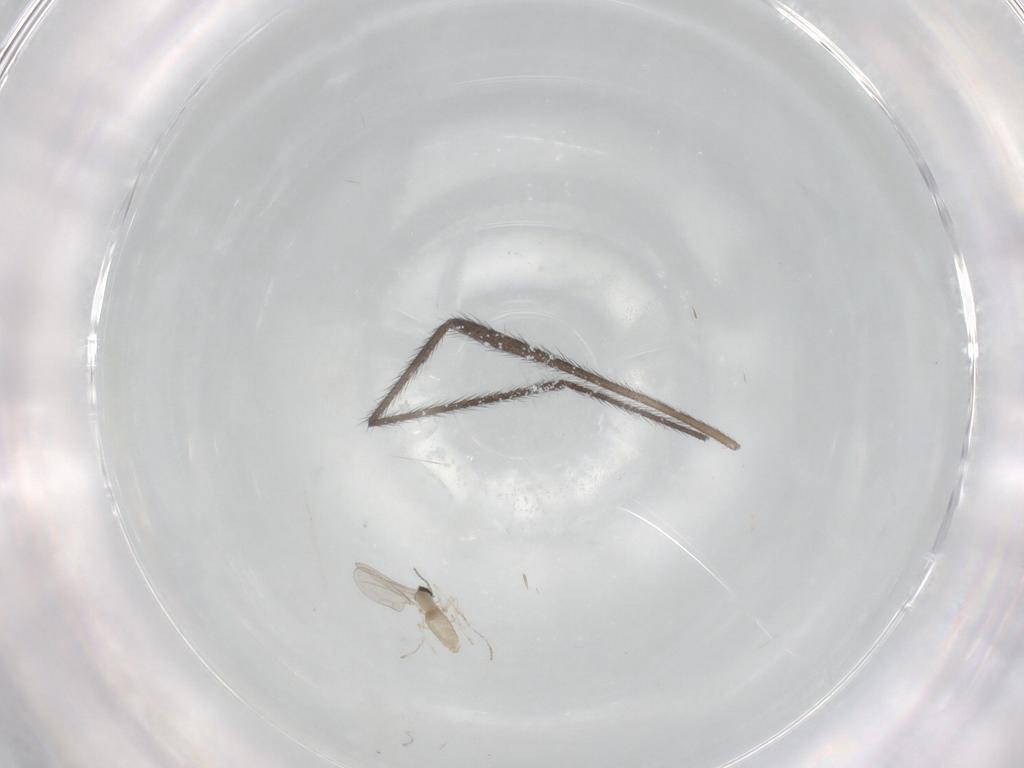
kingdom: Animalia
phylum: Arthropoda
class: Insecta
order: Diptera
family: Cecidomyiidae
